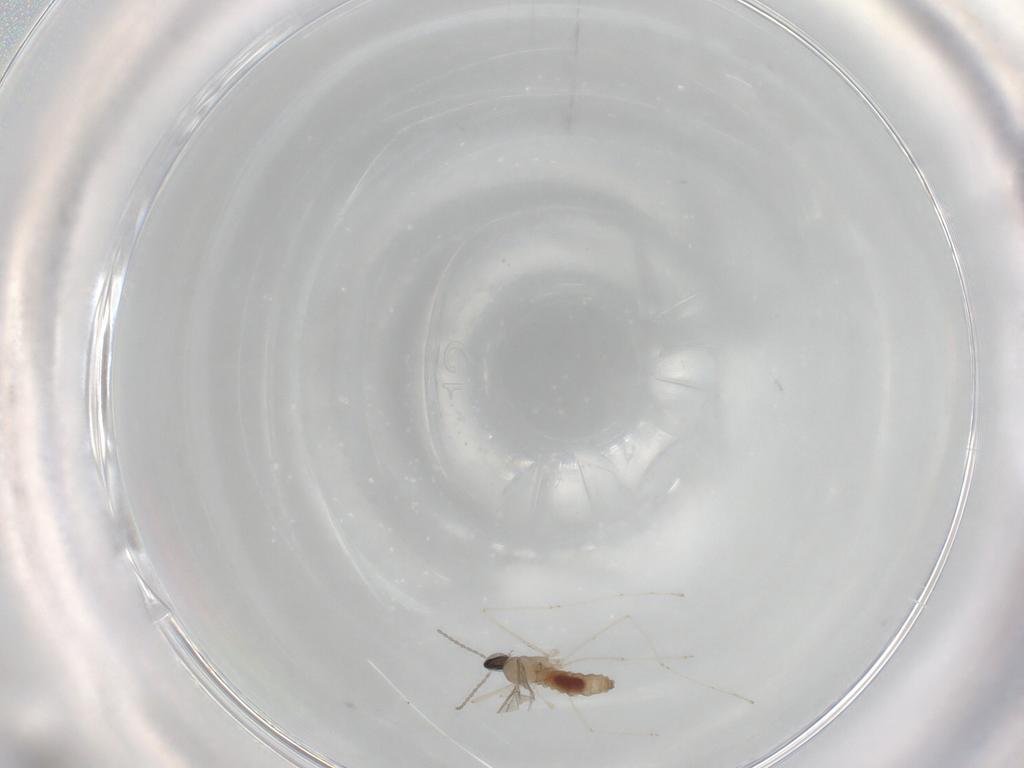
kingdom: Animalia
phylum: Arthropoda
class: Insecta
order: Diptera
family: Cecidomyiidae
